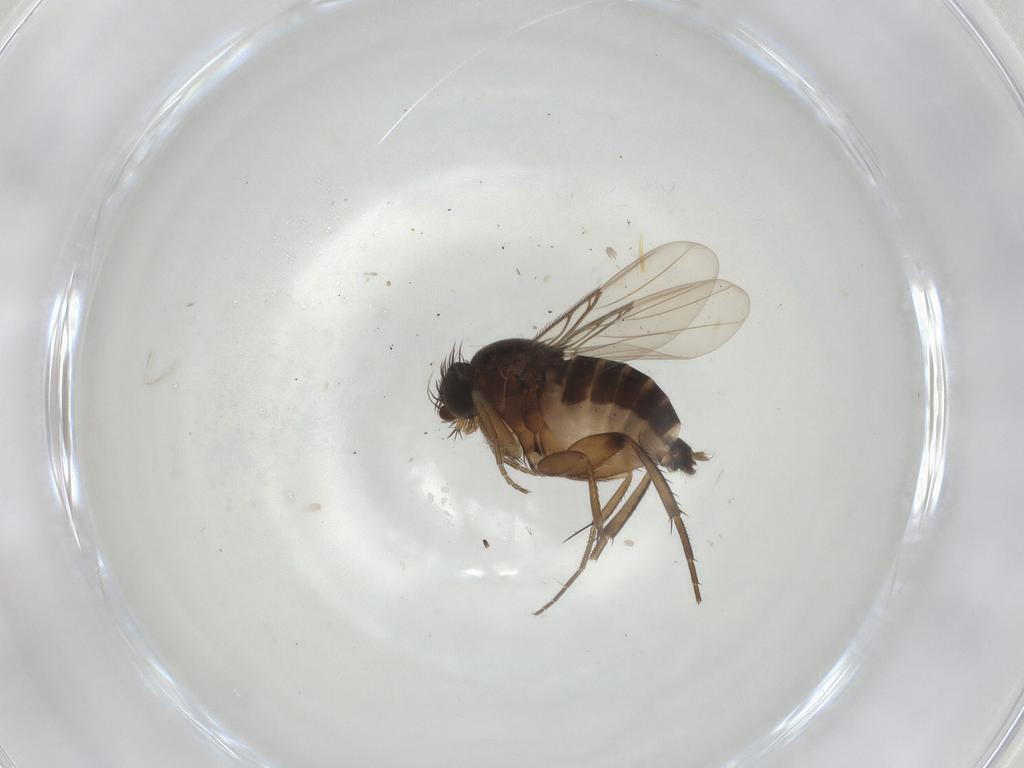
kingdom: Animalia
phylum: Arthropoda
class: Insecta
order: Diptera
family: Phoridae
